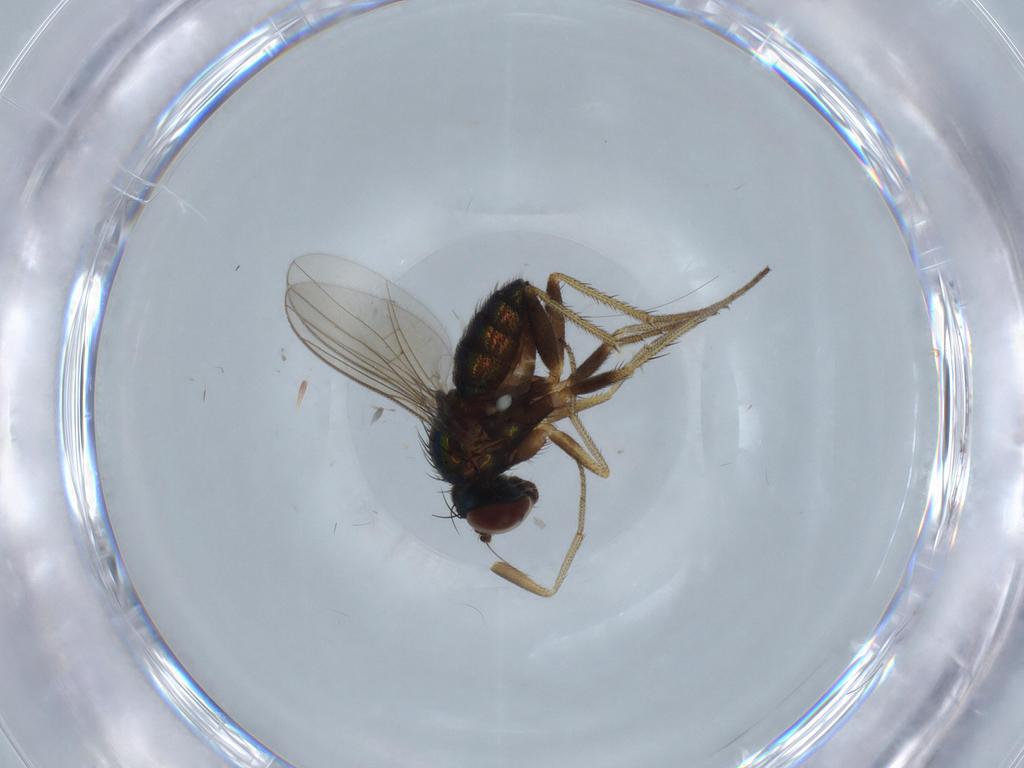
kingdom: Animalia
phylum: Arthropoda
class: Insecta
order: Diptera
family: Dolichopodidae
